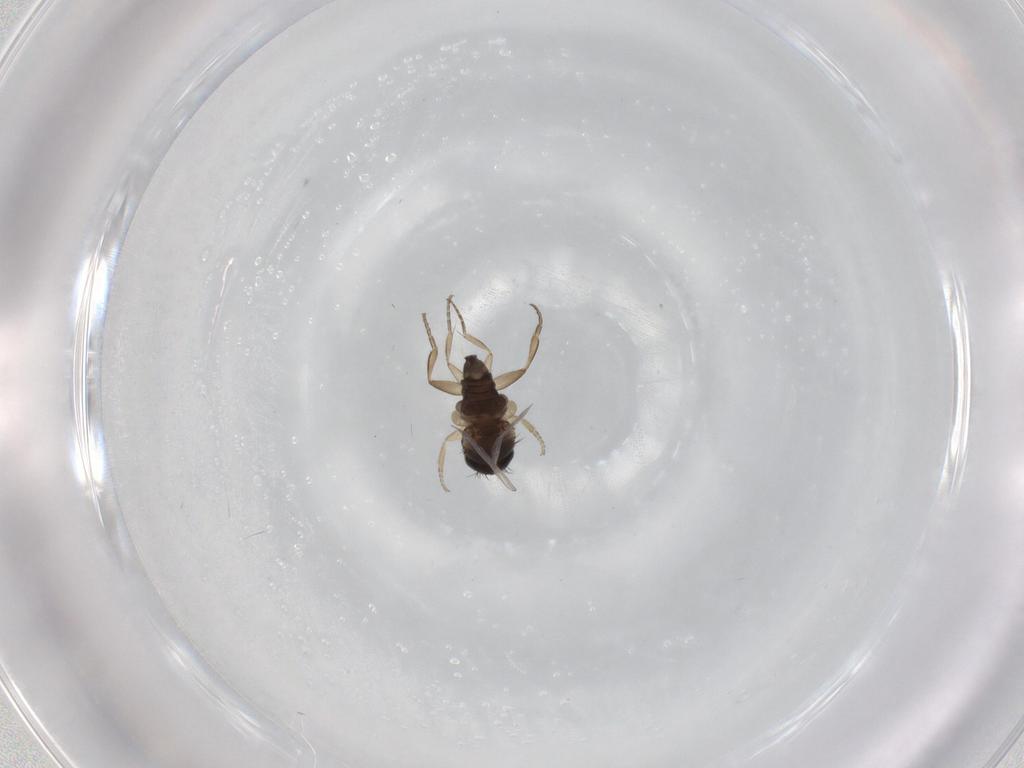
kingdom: Animalia
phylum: Arthropoda
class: Insecta
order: Diptera
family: Phoridae
